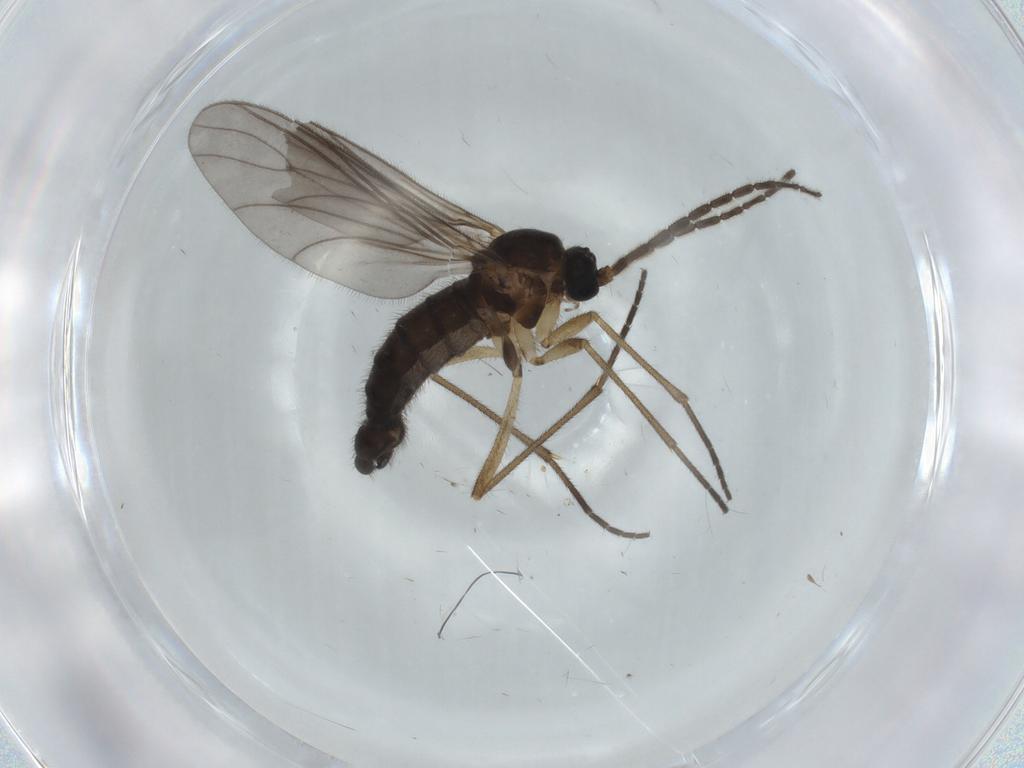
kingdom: Animalia
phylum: Arthropoda
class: Insecta
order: Diptera
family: Sciaridae
